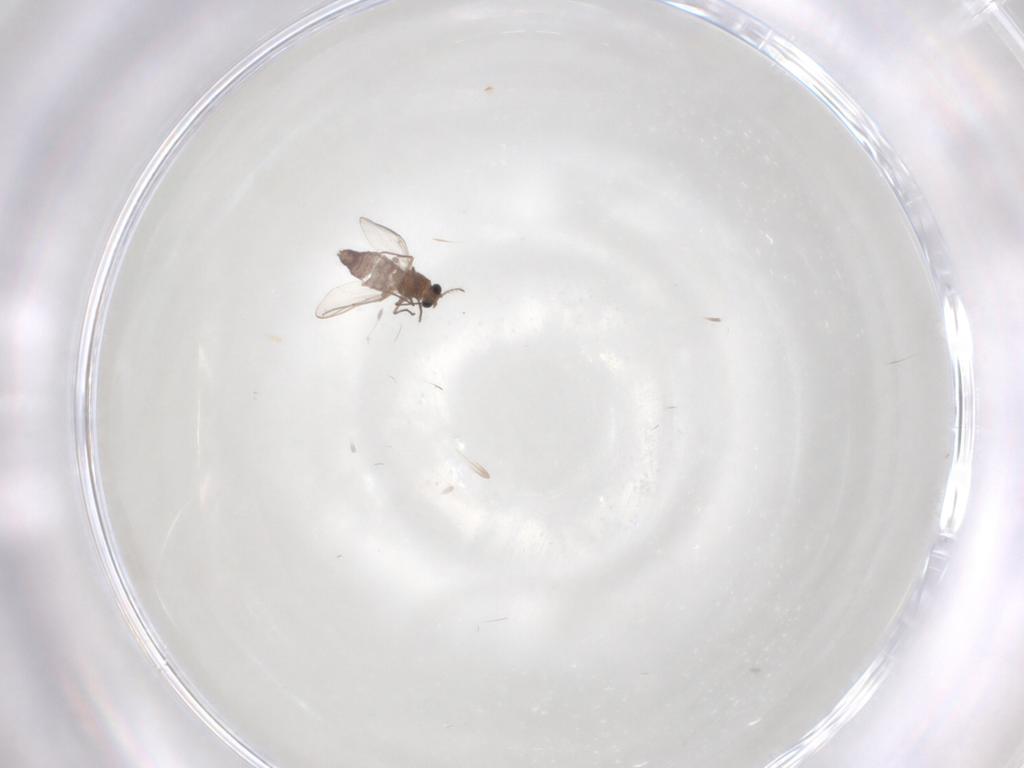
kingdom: Animalia
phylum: Arthropoda
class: Insecta
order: Diptera
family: Chironomidae
